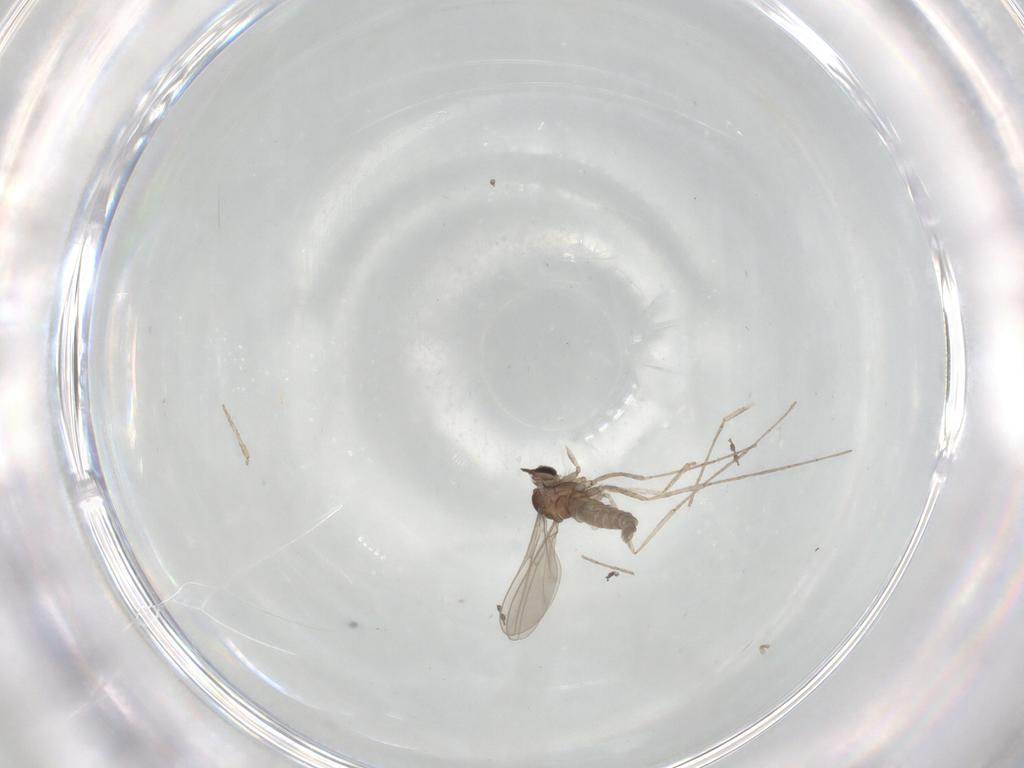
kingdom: Animalia
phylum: Arthropoda
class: Insecta
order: Diptera
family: Cecidomyiidae
